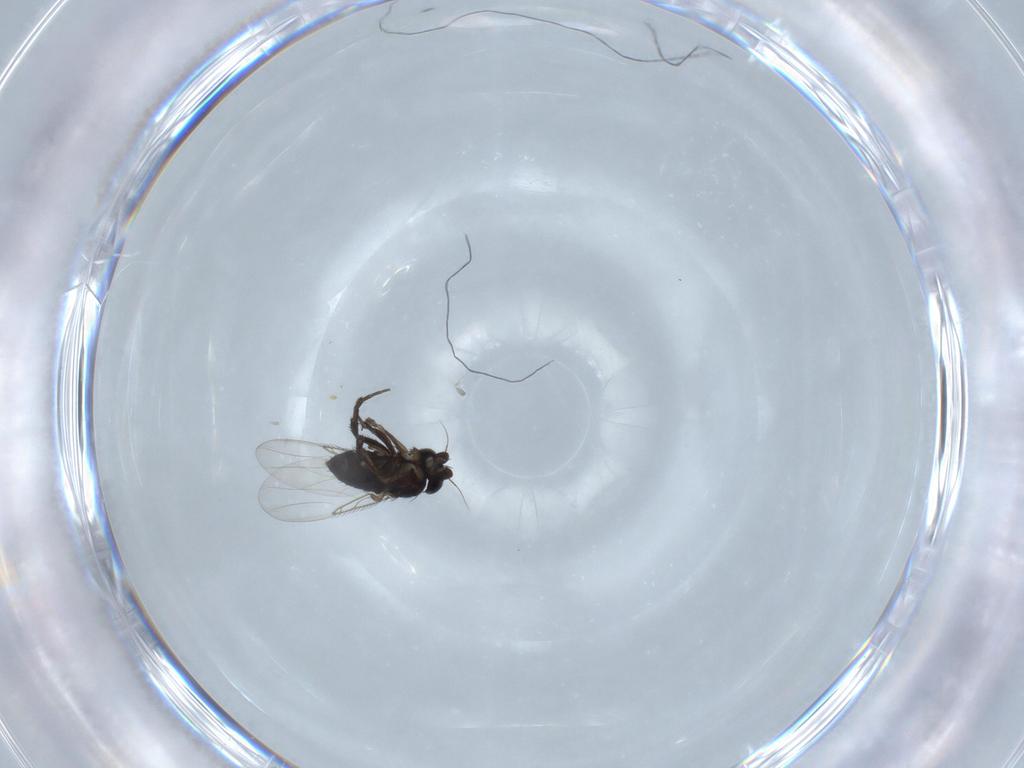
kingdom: Animalia
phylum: Arthropoda
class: Insecta
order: Diptera
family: Phoridae
